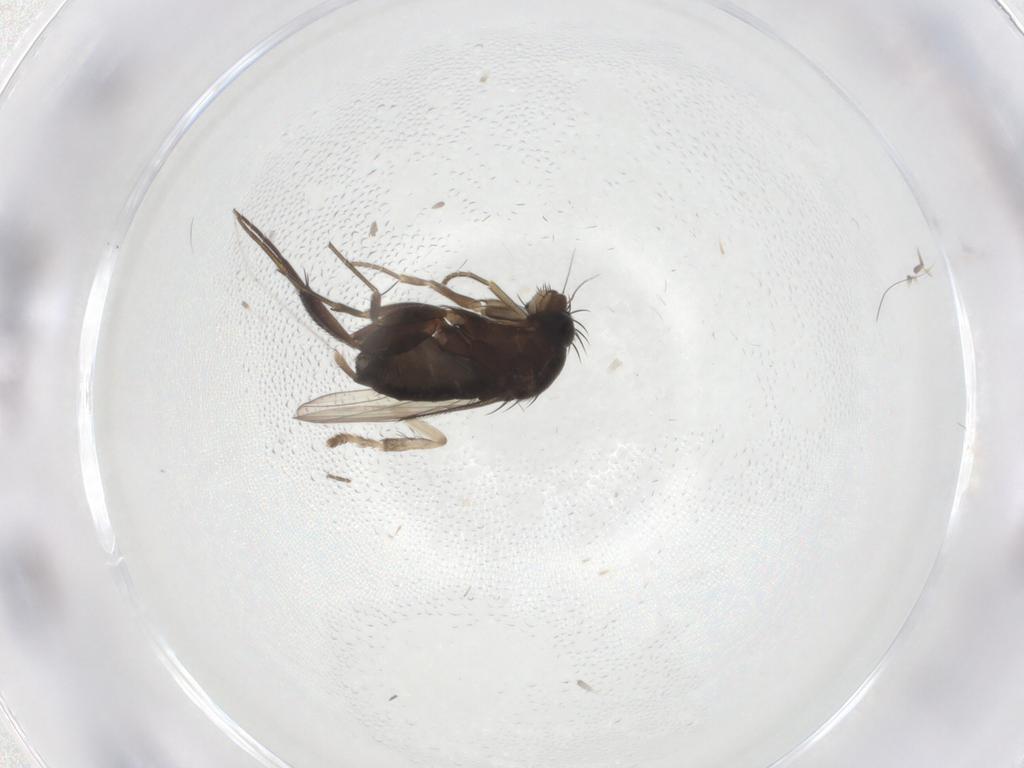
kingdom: Animalia
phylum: Arthropoda
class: Insecta
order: Diptera
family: Phoridae
